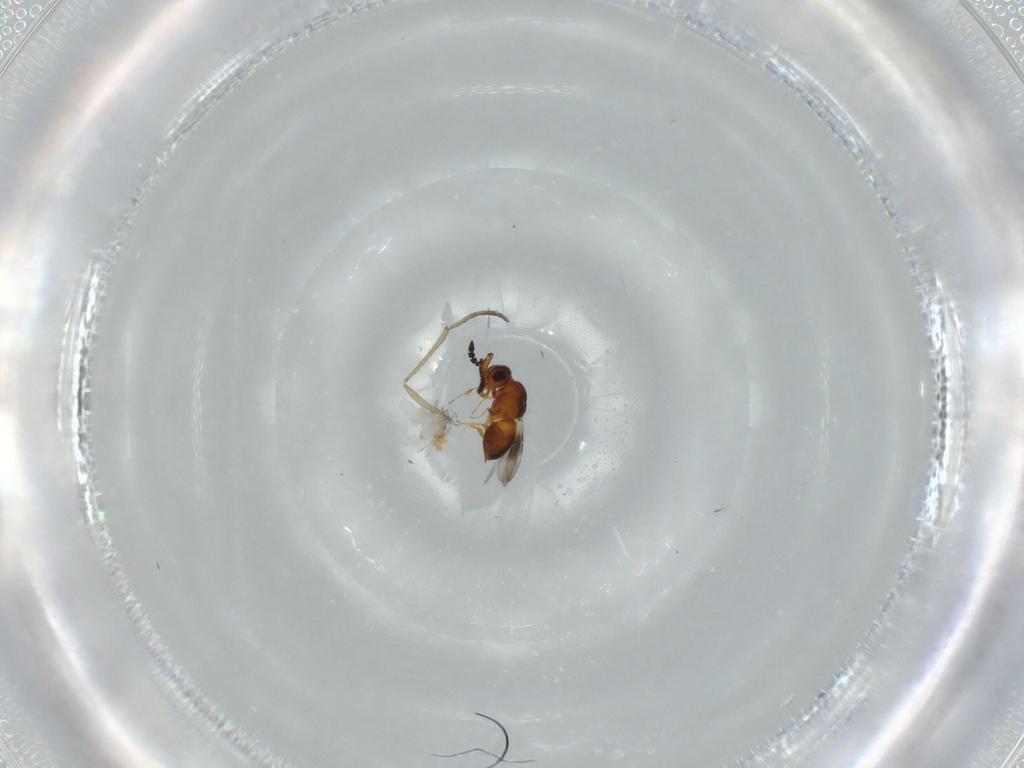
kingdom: Animalia
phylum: Arthropoda
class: Insecta
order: Hymenoptera
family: Ceraphronidae
